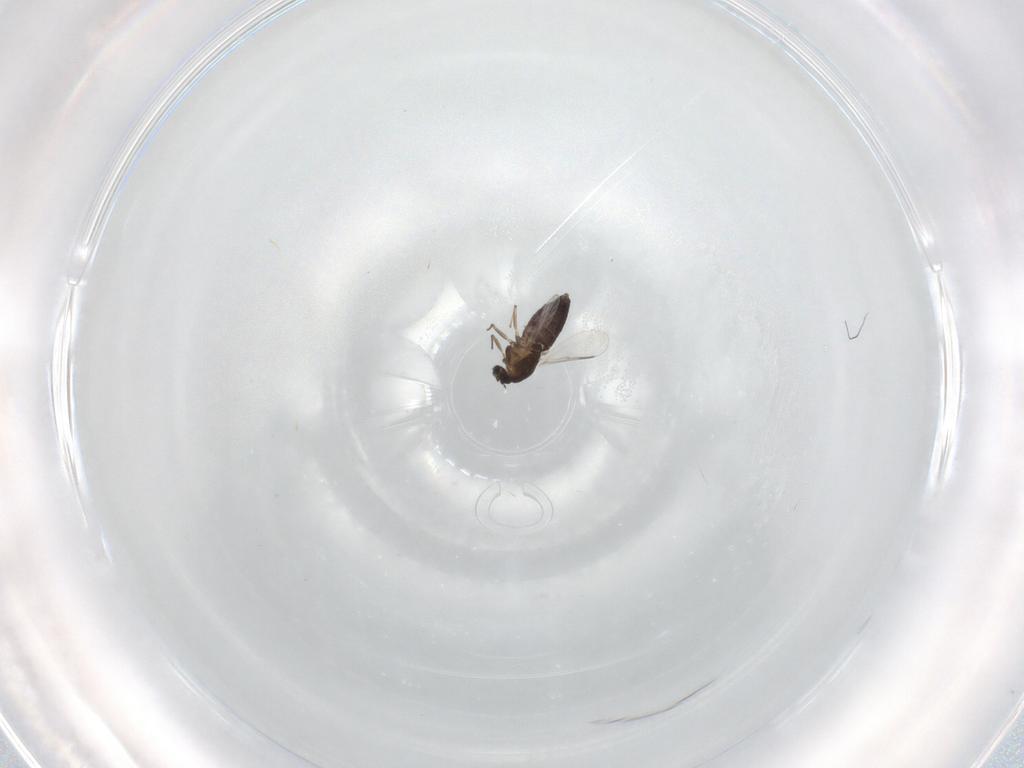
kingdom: Animalia
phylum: Arthropoda
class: Insecta
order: Diptera
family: Chironomidae
